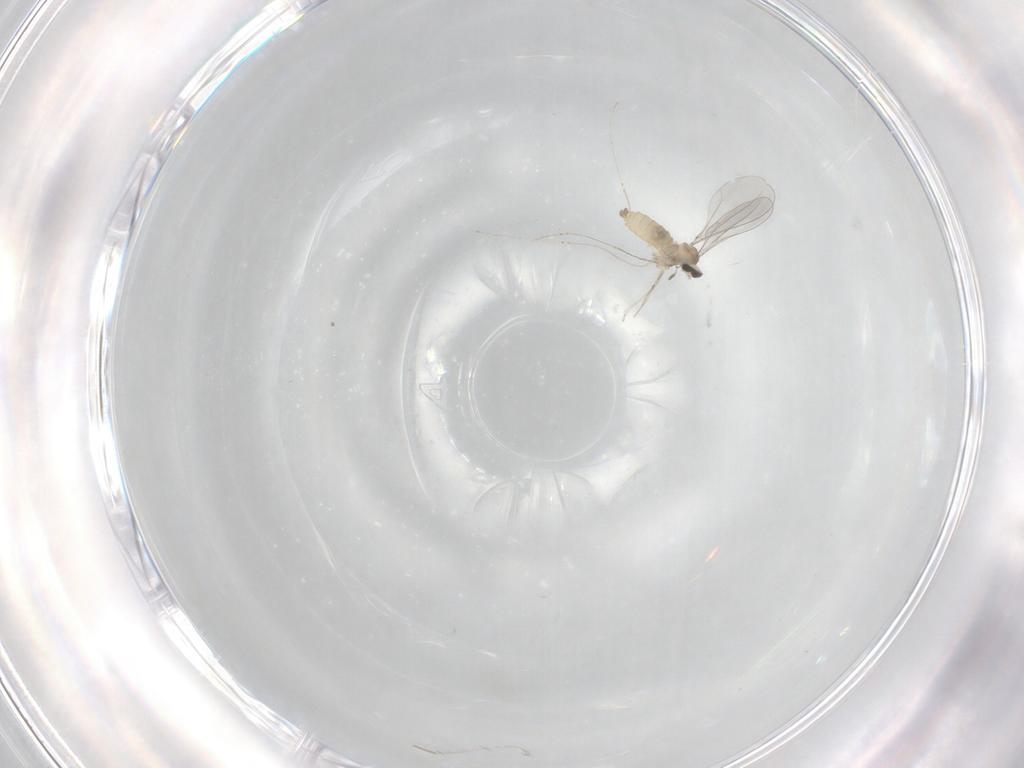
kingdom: Animalia
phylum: Arthropoda
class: Insecta
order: Diptera
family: Cecidomyiidae
